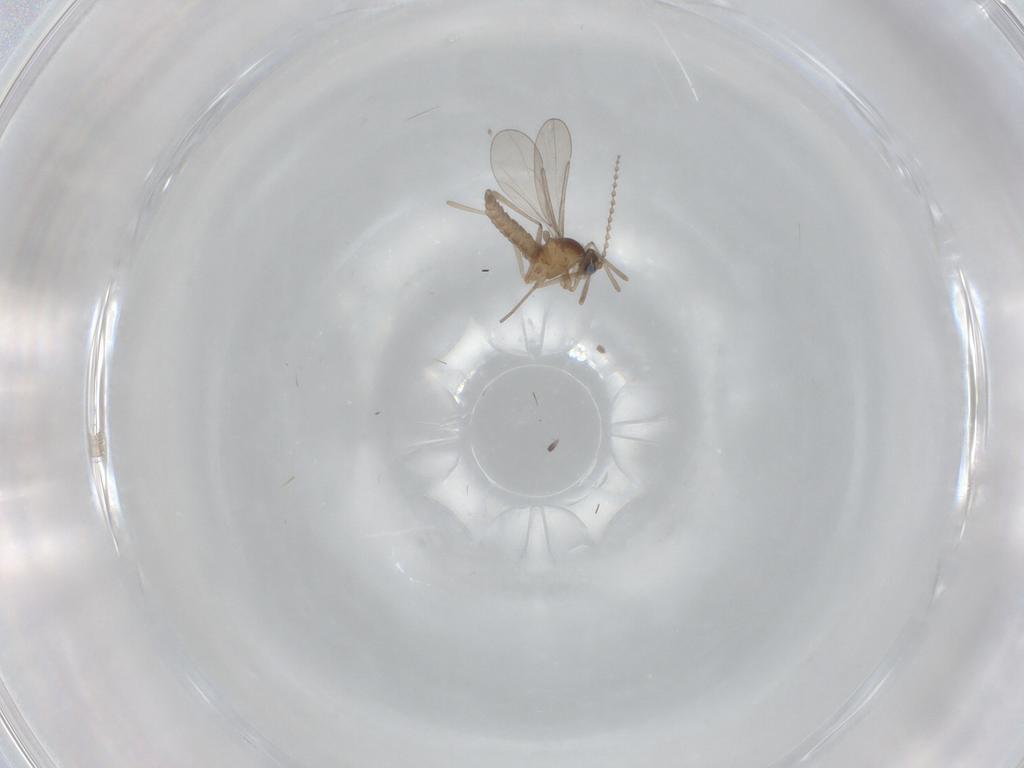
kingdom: Animalia
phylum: Arthropoda
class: Insecta
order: Diptera
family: Cecidomyiidae
